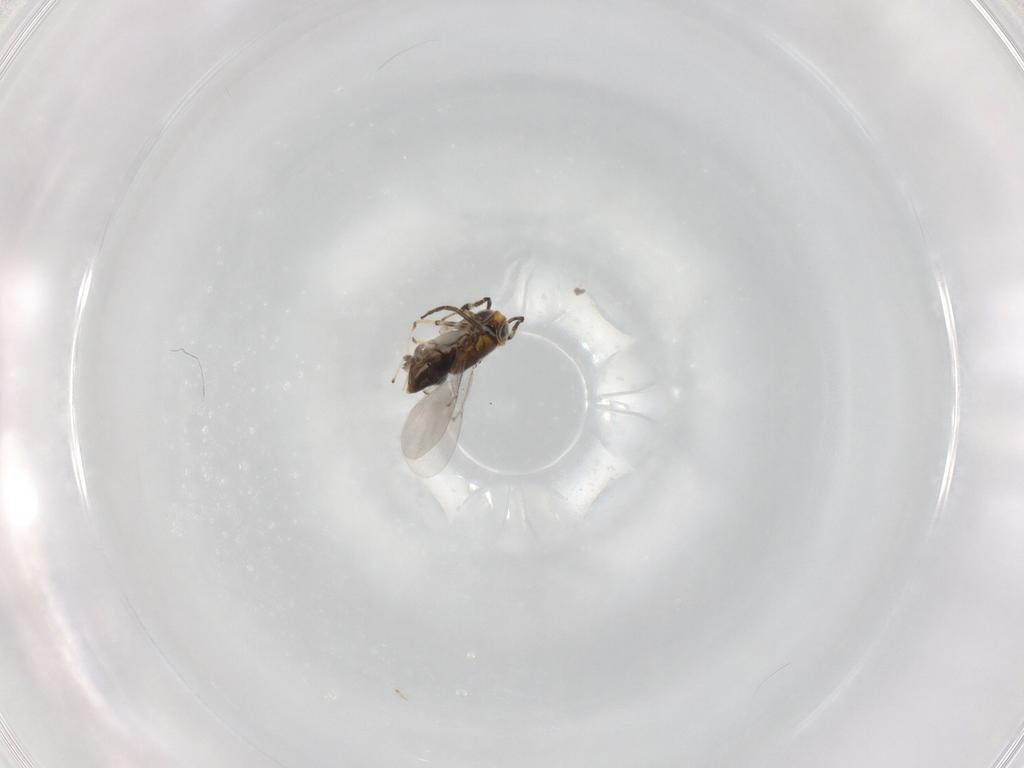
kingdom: Animalia
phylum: Arthropoda
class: Insecta
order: Hymenoptera
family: Encyrtidae
